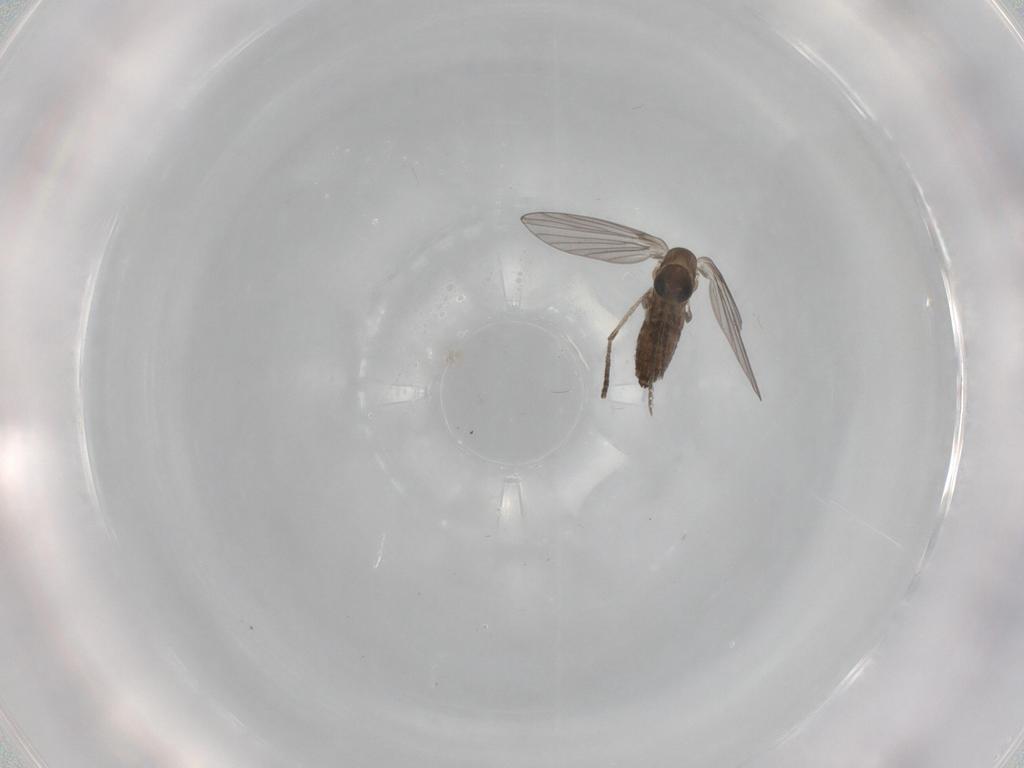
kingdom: Animalia
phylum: Arthropoda
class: Insecta
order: Diptera
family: Psychodidae
